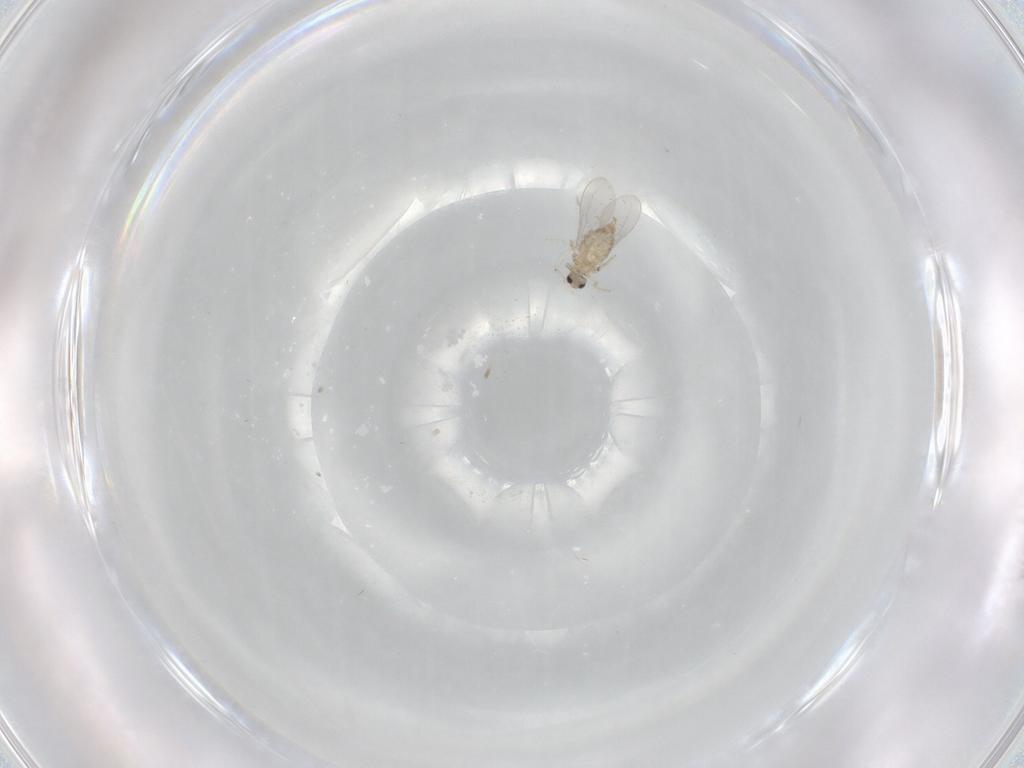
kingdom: Animalia
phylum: Arthropoda
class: Insecta
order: Diptera
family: Cecidomyiidae
